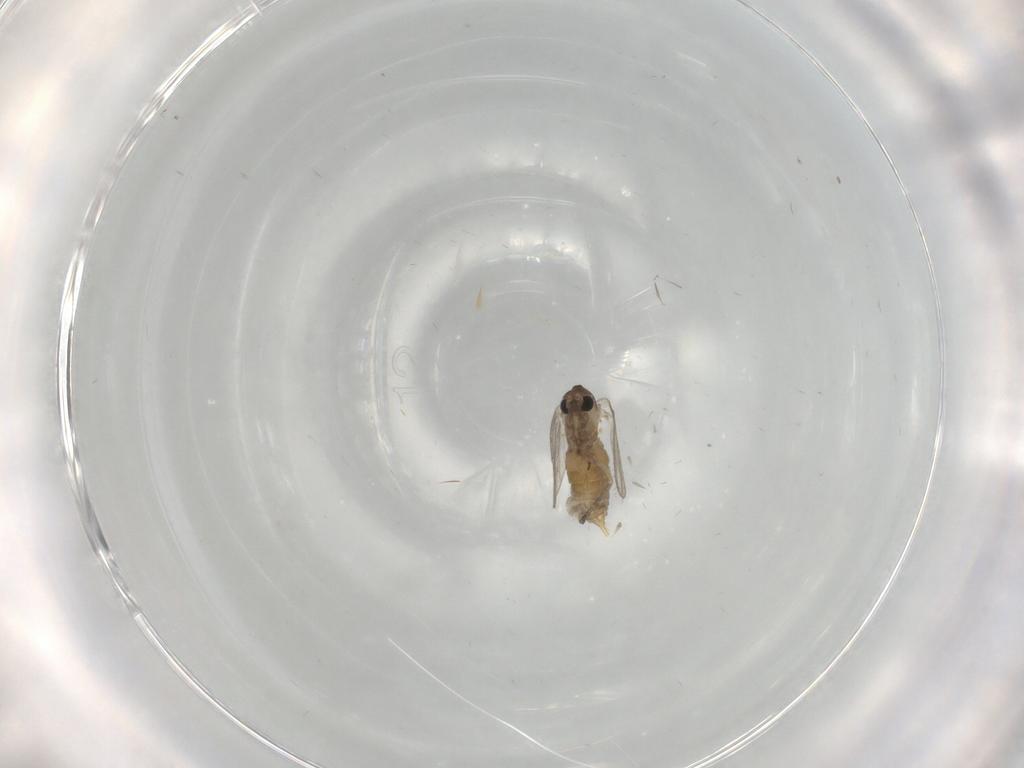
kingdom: Animalia
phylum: Arthropoda
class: Insecta
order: Diptera
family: Psychodidae
